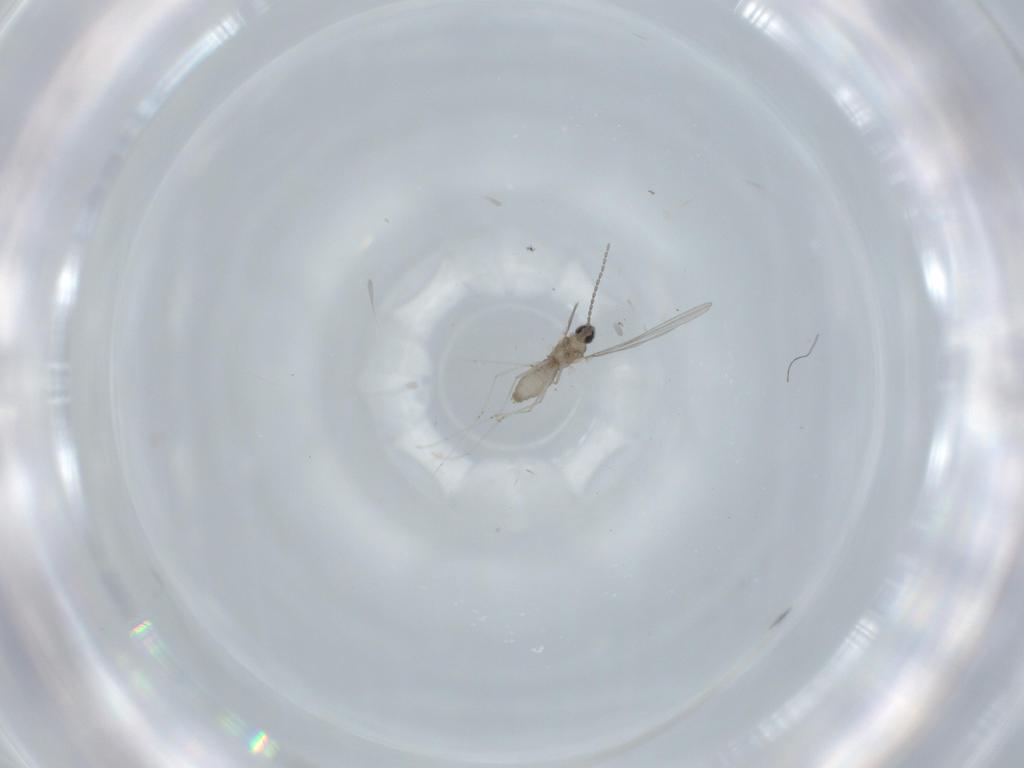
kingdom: Animalia
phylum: Arthropoda
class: Insecta
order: Diptera
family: Cecidomyiidae
